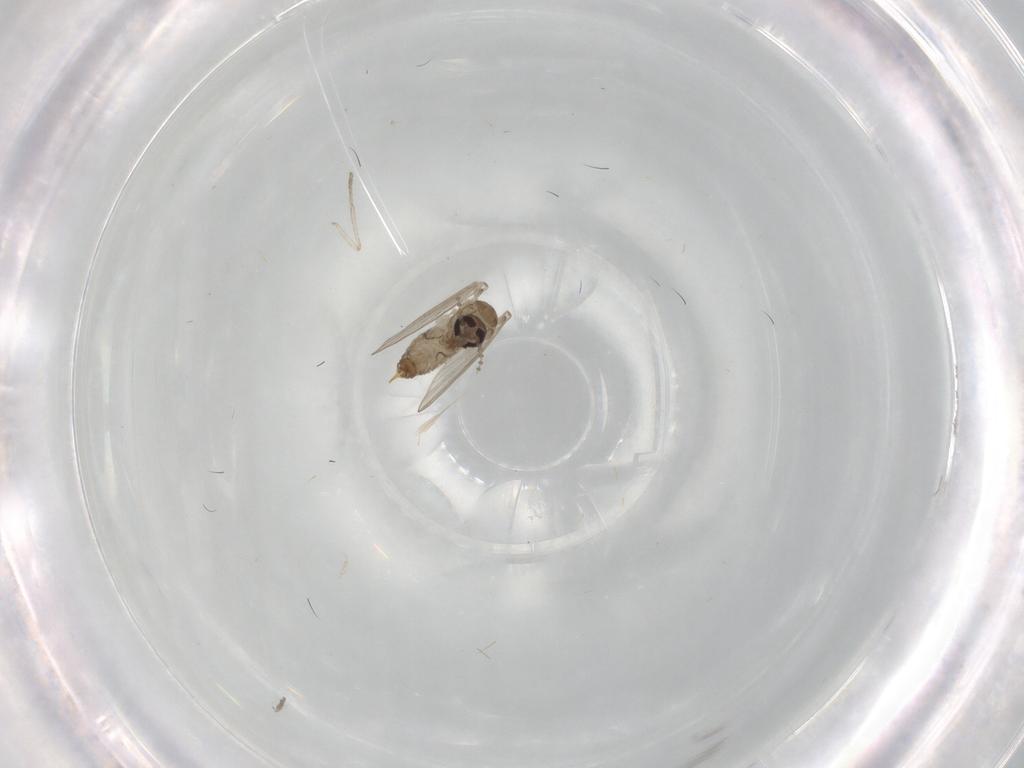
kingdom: Animalia
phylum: Arthropoda
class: Insecta
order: Diptera
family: Psychodidae
